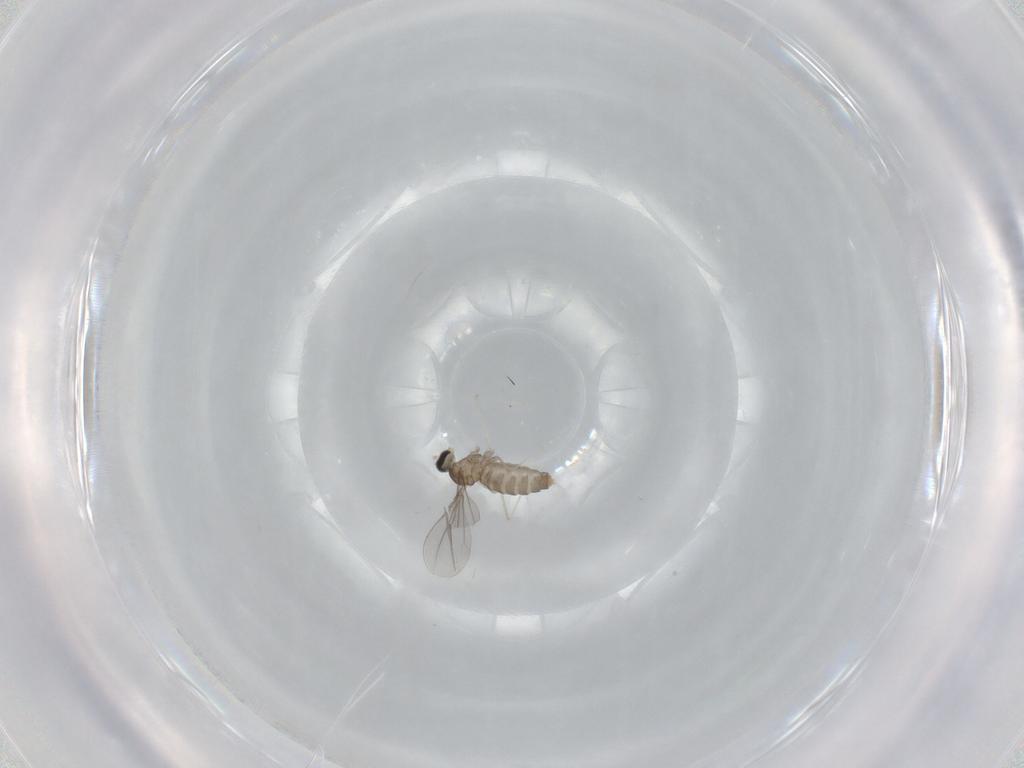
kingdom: Animalia
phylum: Arthropoda
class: Insecta
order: Diptera
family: Cecidomyiidae
